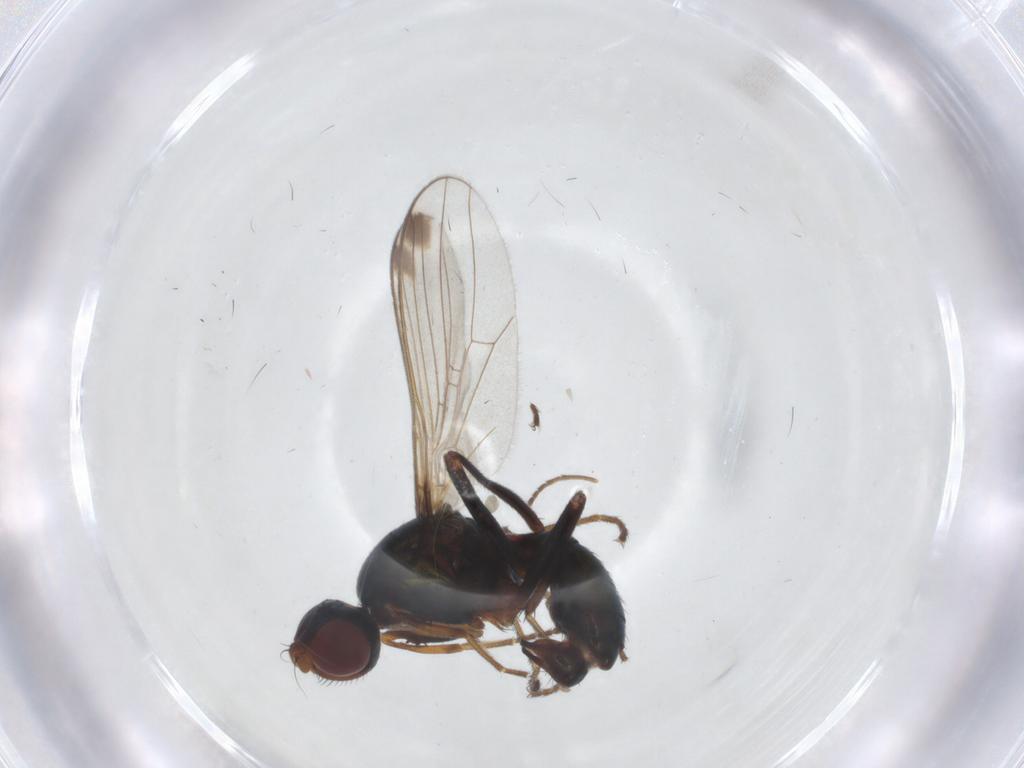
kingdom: Animalia
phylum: Arthropoda
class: Insecta
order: Diptera
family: Sepsidae
